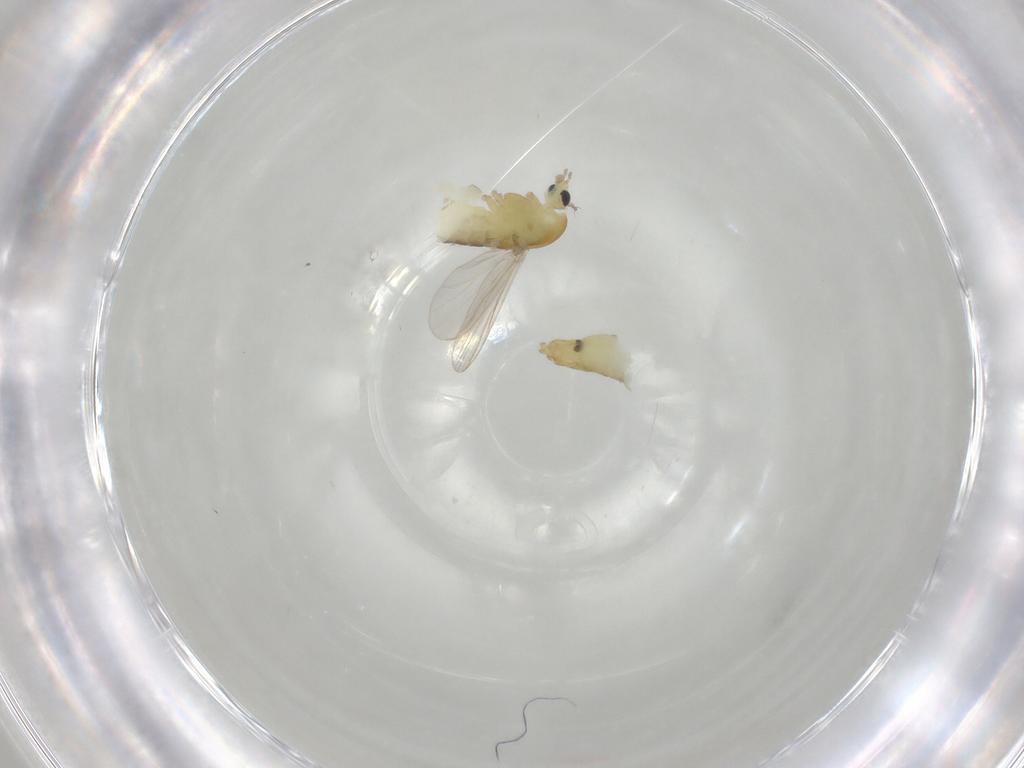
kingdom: Animalia
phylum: Arthropoda
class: Insecta
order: Diptera
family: Chironomidae
